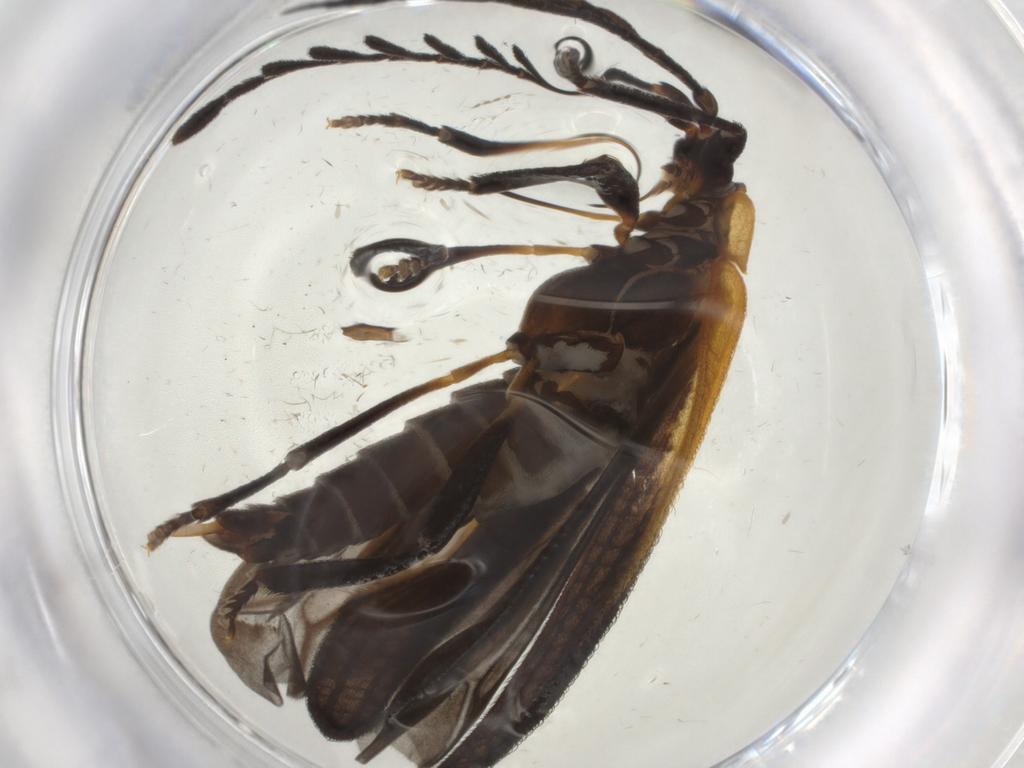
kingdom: Animalia
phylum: Arthropoda
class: Insecta
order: Coleoptera
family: Lycidae
